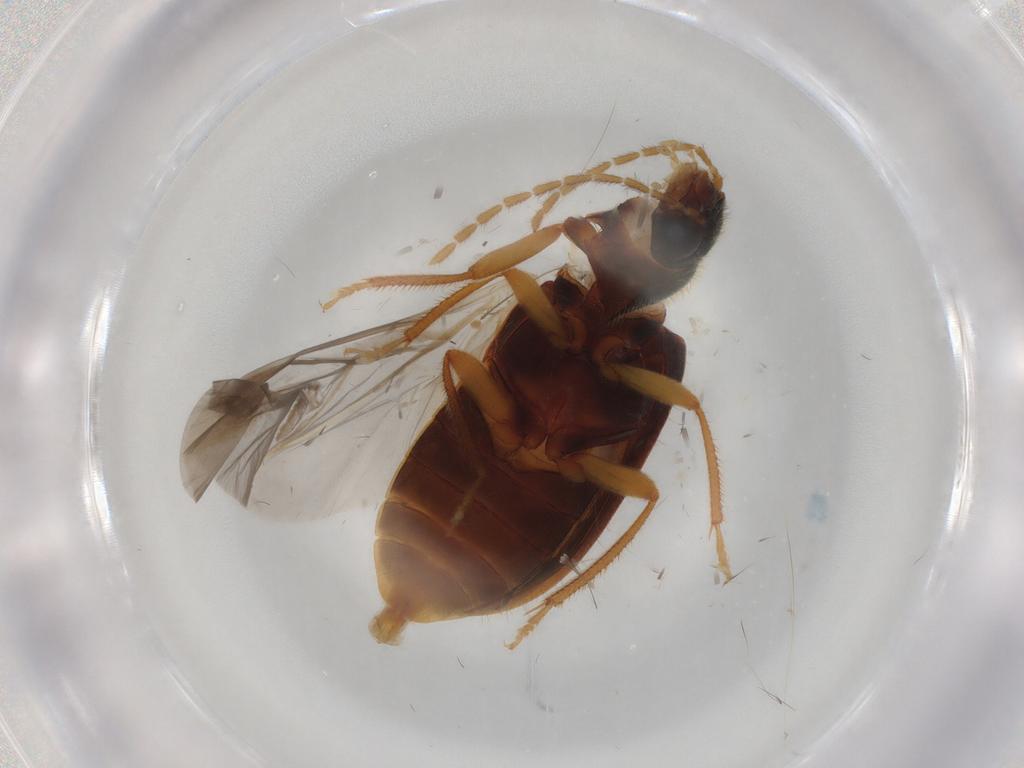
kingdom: Animalia
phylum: Arthropoda
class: Insecta
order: Coleoptera
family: Ptilodactylidae
